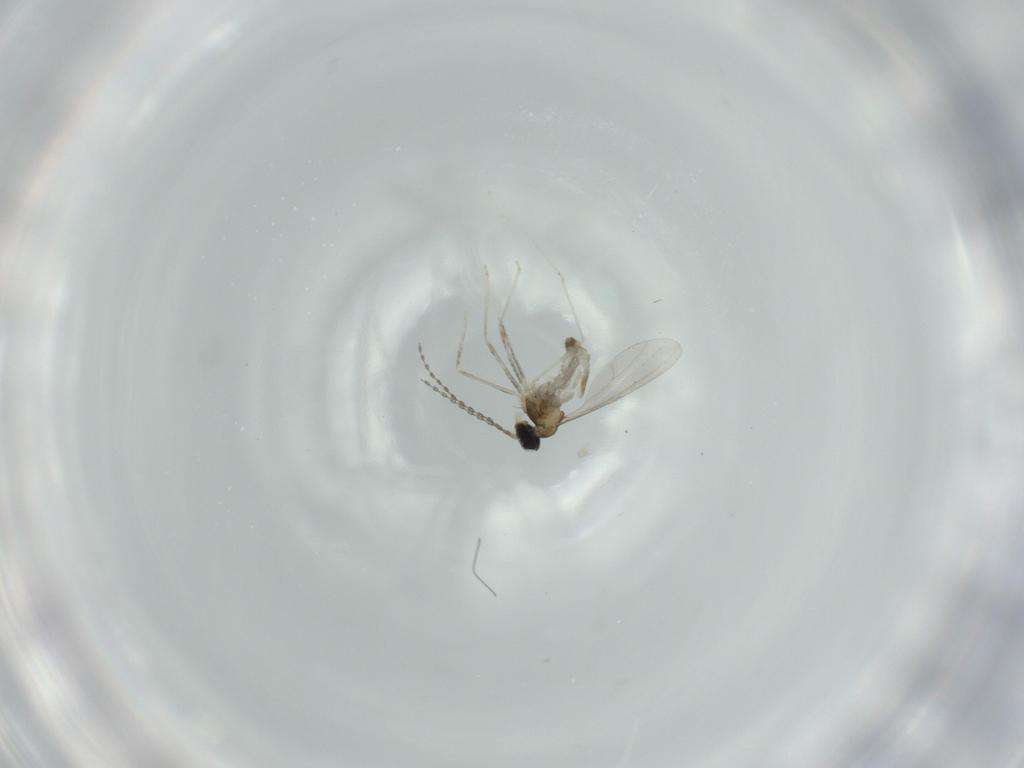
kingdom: Animalia
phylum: Arthropoda
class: Insecta
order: Diptera
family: Cecidomyiidae
